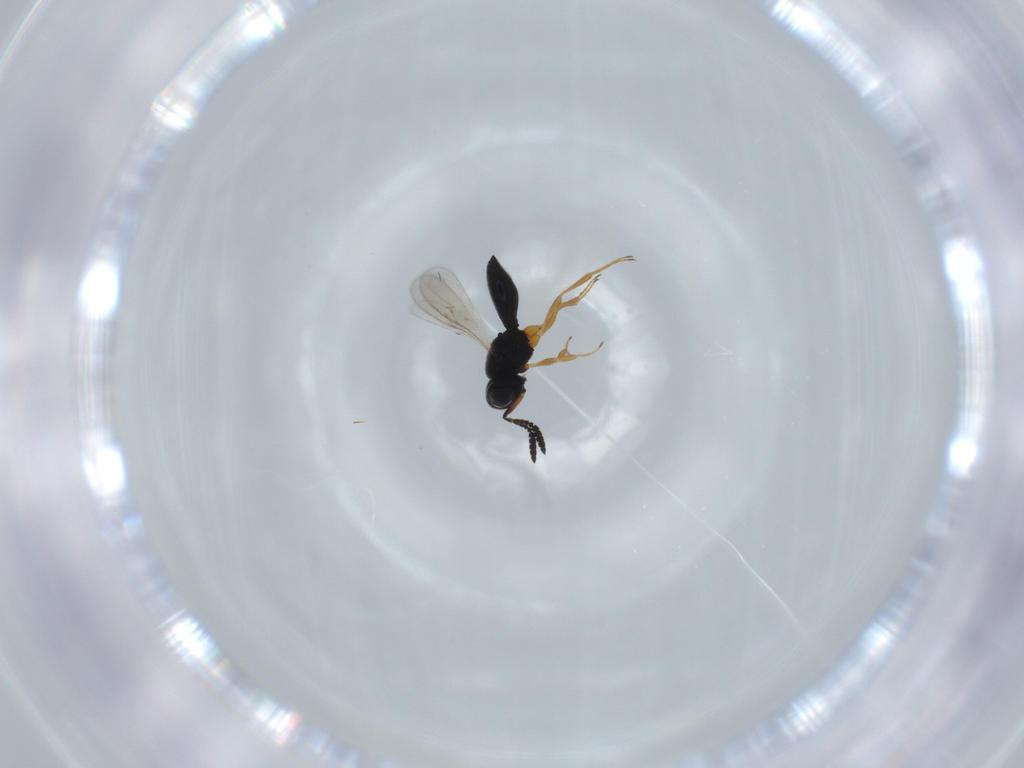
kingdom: Animalia
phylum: Arthropoda
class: Insecta
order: Hymenoptera
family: Scelionidae
